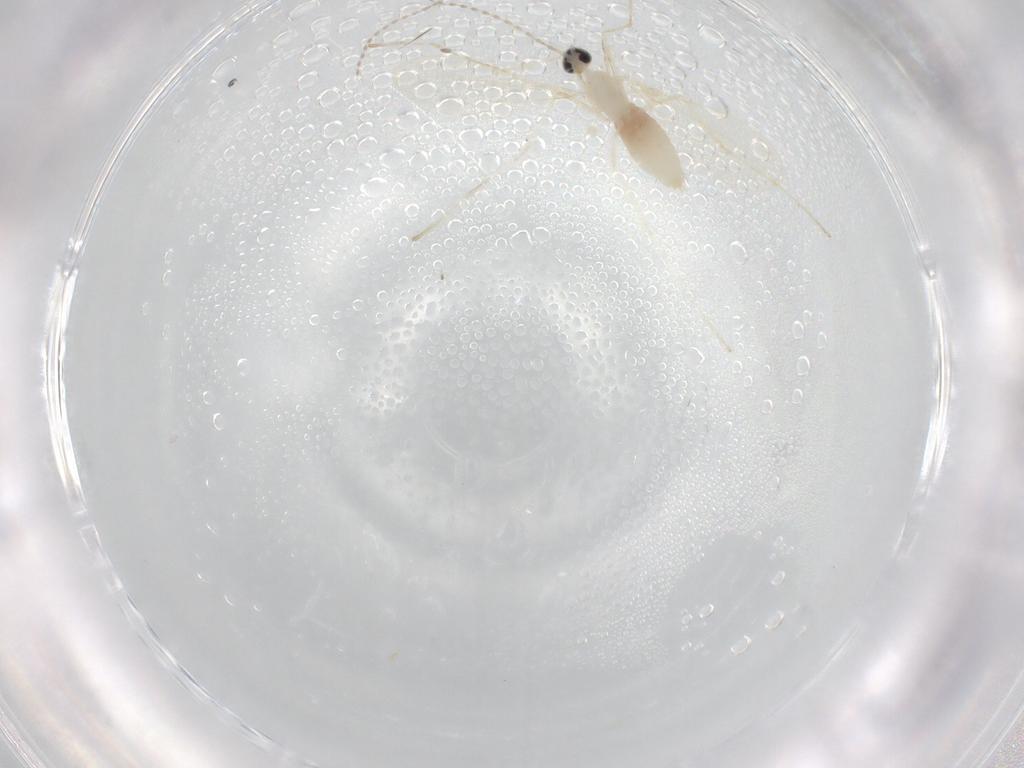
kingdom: Animalia
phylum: Arthropoda
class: Insecta
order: Diptera
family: Cecidomyiidae
